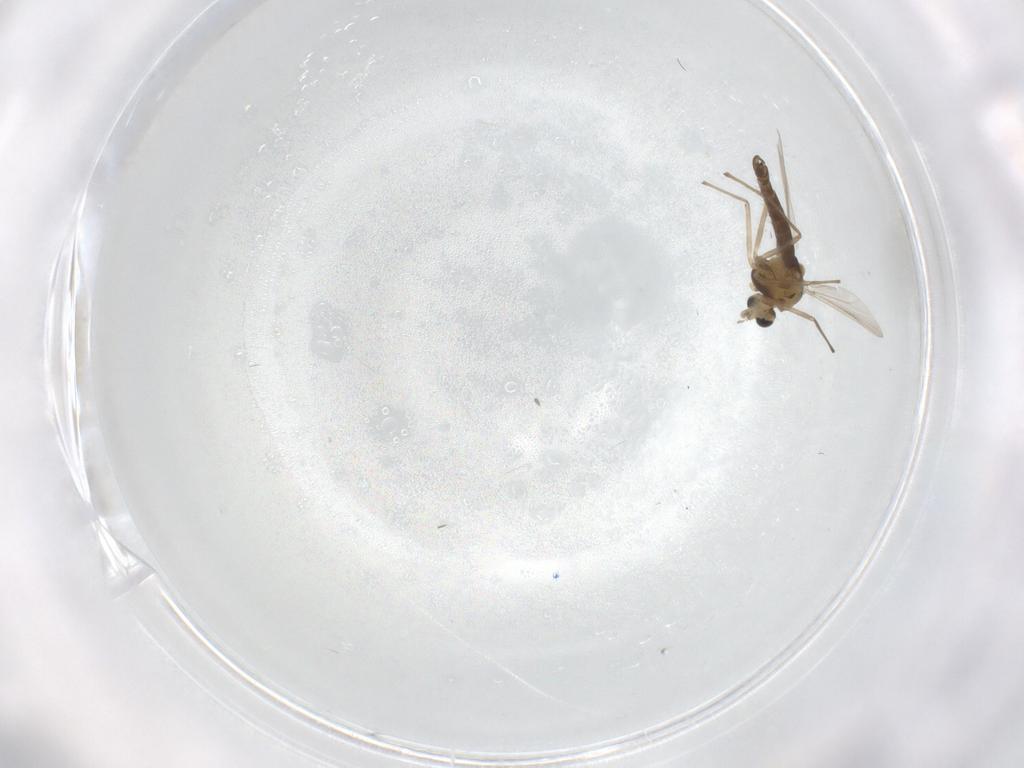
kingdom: Animalia
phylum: Arthropoda
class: Insecta
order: Diptera
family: Chironomidae
